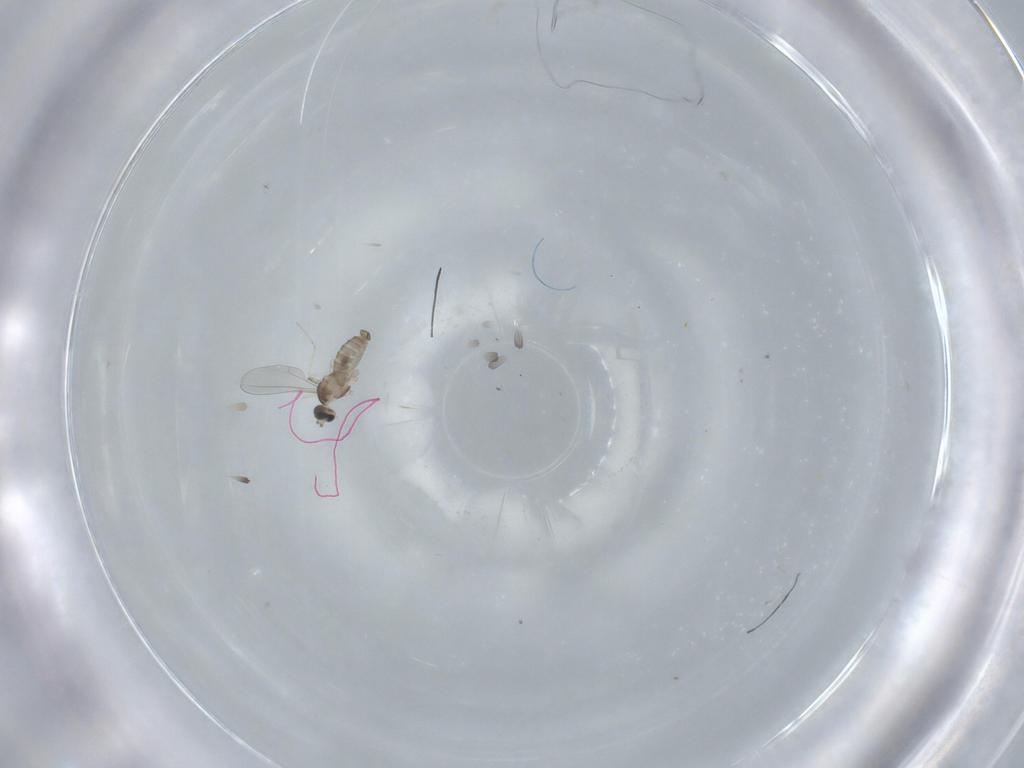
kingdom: Animalia
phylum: Arthropoda
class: Insecta
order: Diptera
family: Cecidomyiidae
